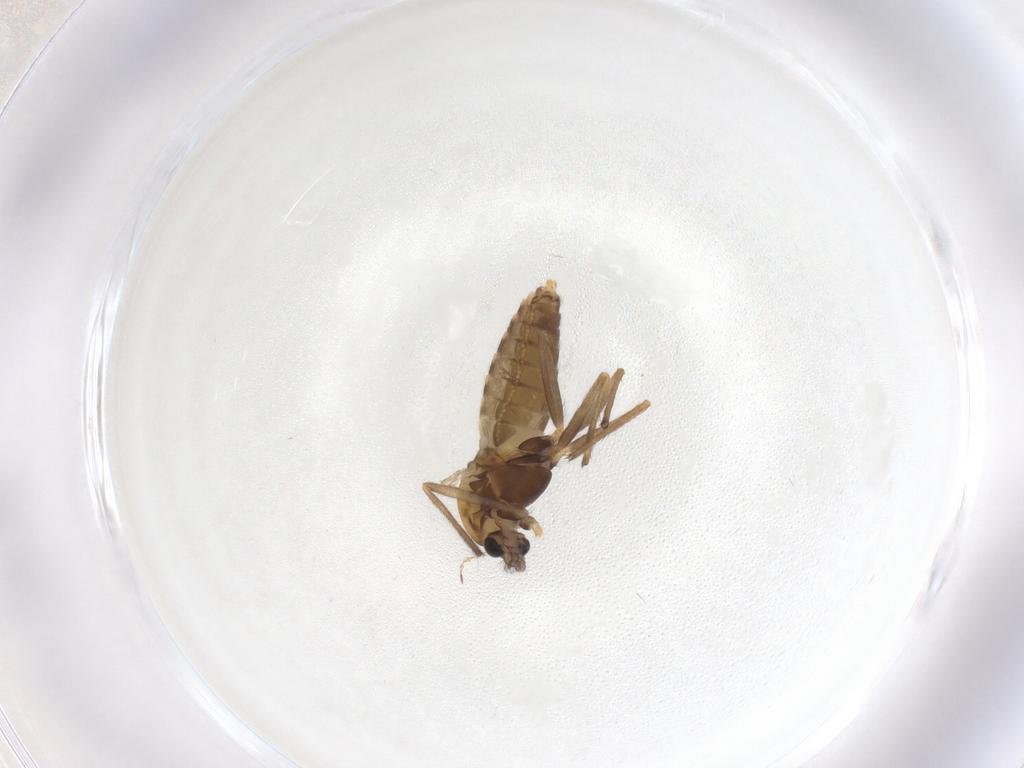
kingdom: Animalia
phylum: Arthropoda
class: Insecta
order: Diptera
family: Chironomidae
